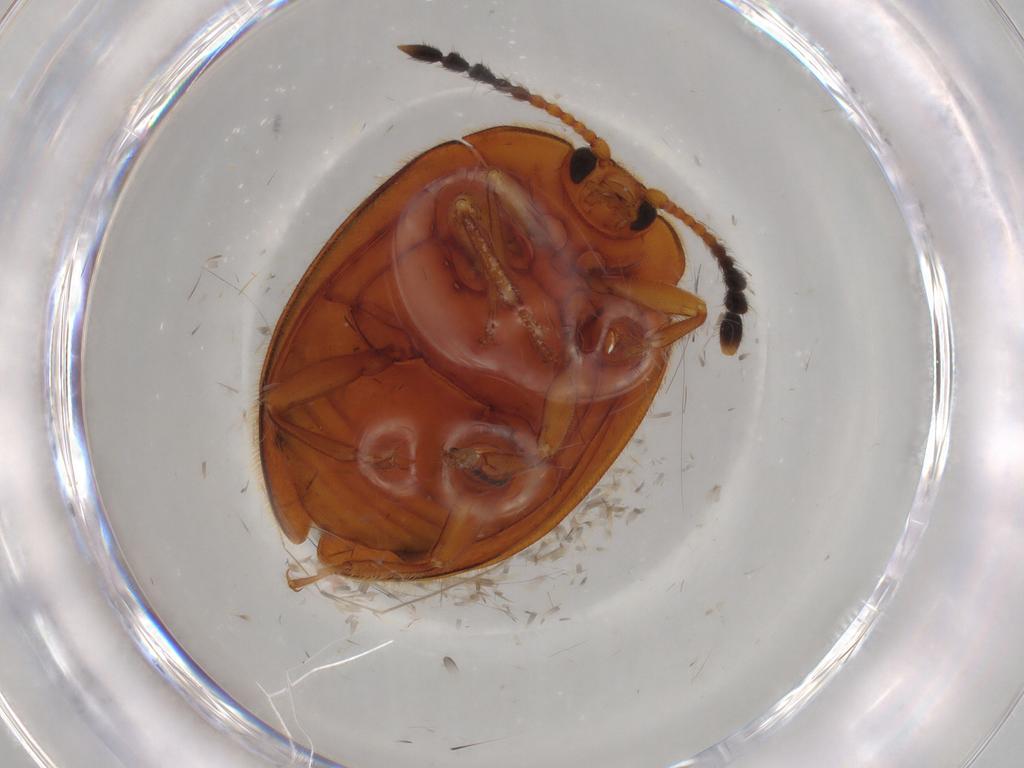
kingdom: Animalia
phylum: Arthropoda
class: Insecta
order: Coleoptera
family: Endomychidae
